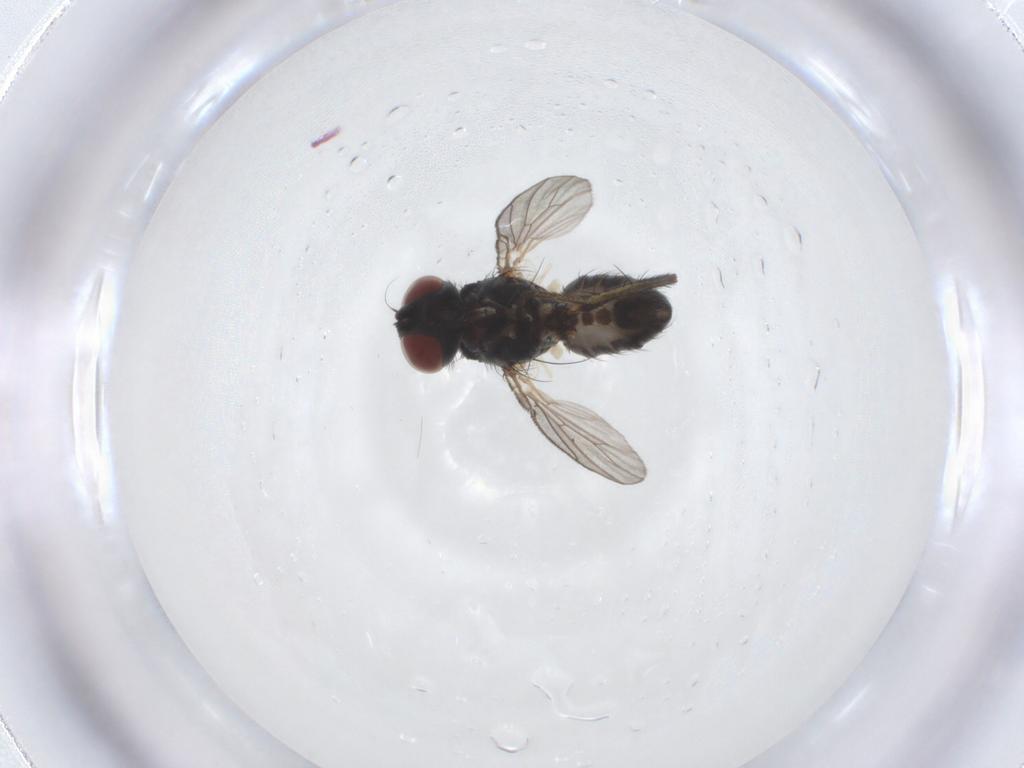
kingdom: Animalia
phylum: Arthropoda
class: Insecta
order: Diptera
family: Muscidae
